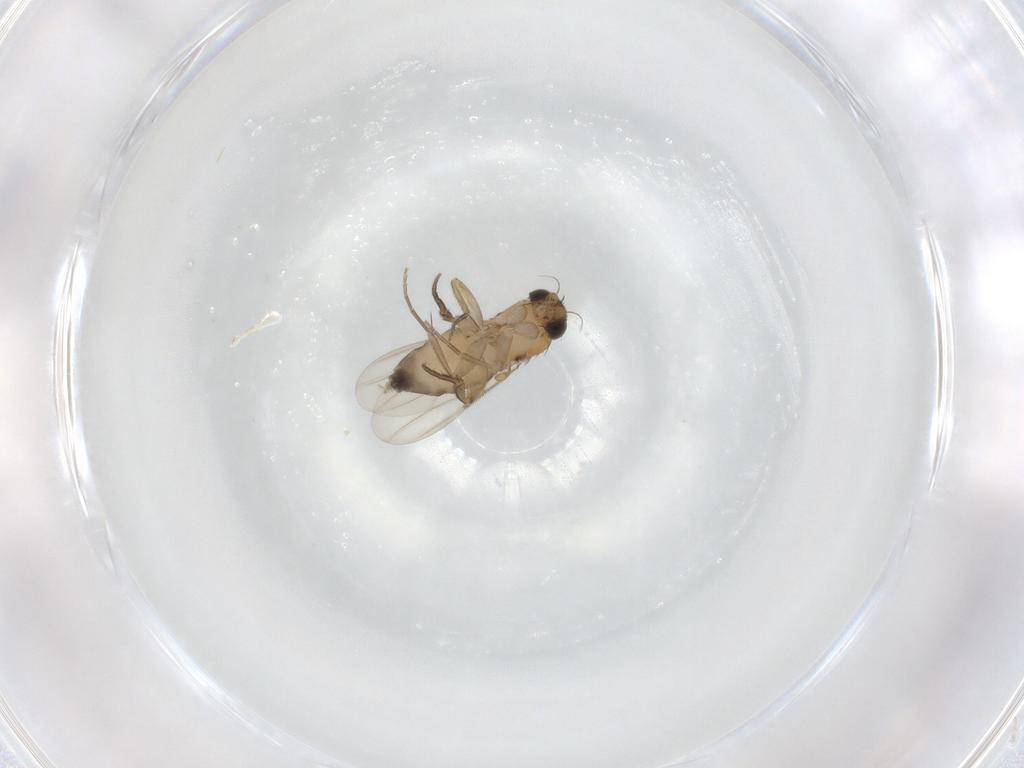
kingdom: Animalia
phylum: Arthropoda
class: Insecta
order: Diptera
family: Phoridae
